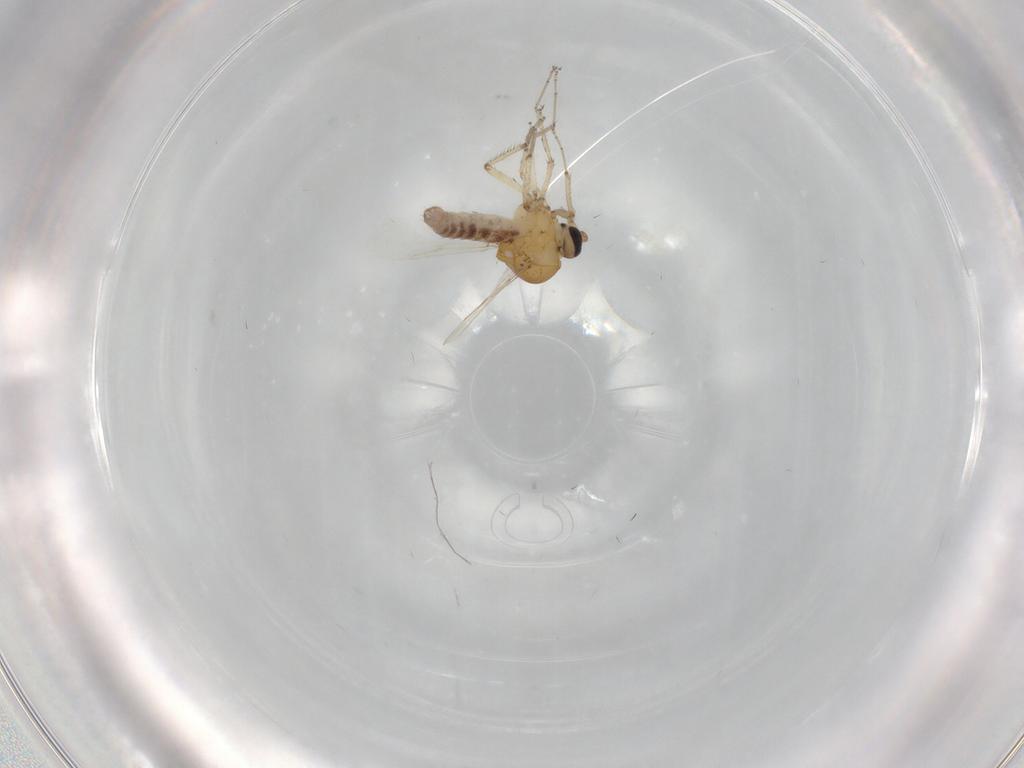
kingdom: Animalia
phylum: Arthropoda
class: Insecta
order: Diptera
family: Ceratopogonidae
